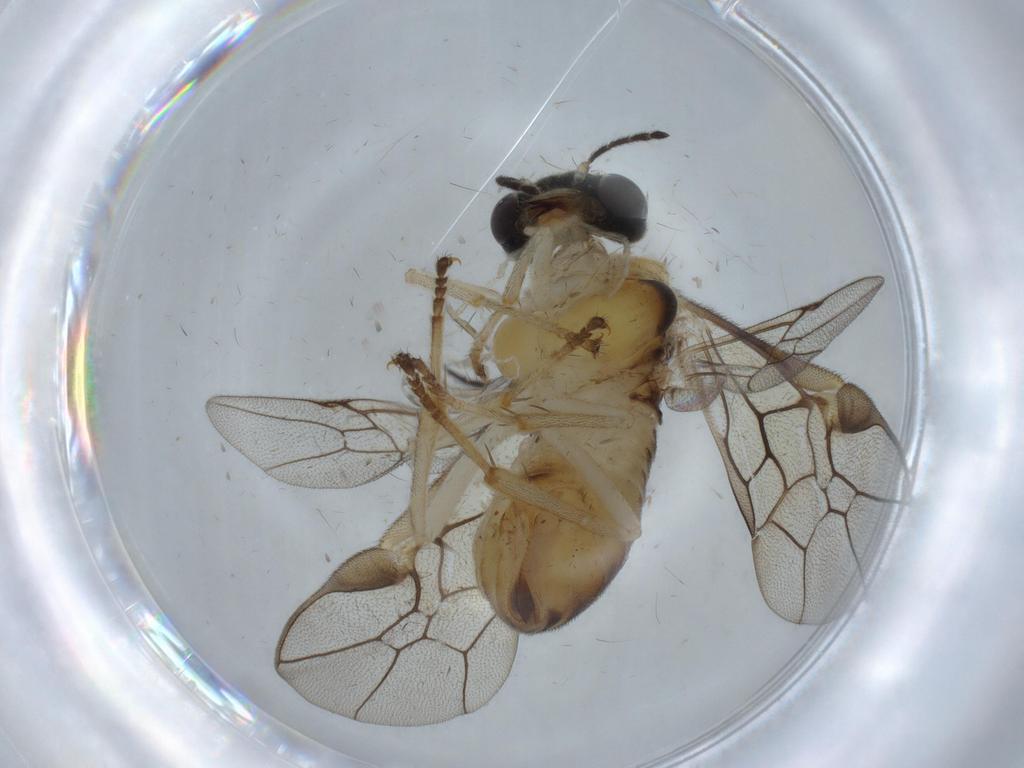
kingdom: Animalia
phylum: Arthropoda
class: Insecta
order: Diptera
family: Cecidomyiidae
